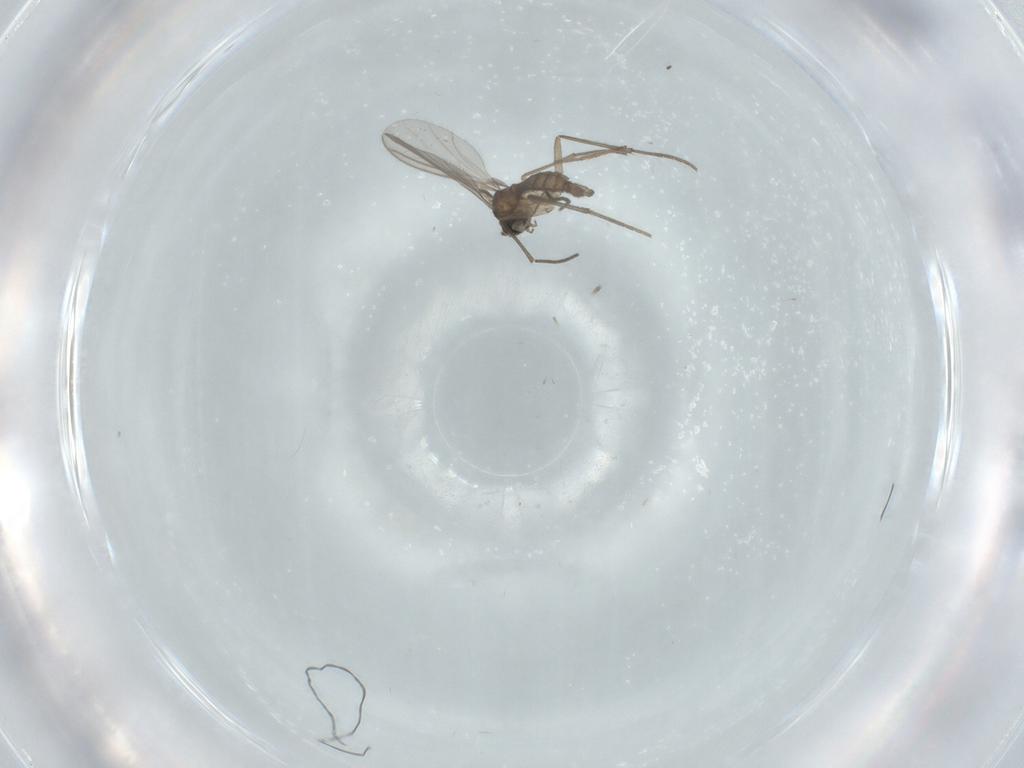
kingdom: Animalia
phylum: Arthropoda
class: Insecta
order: Diptera
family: Sciaridae
